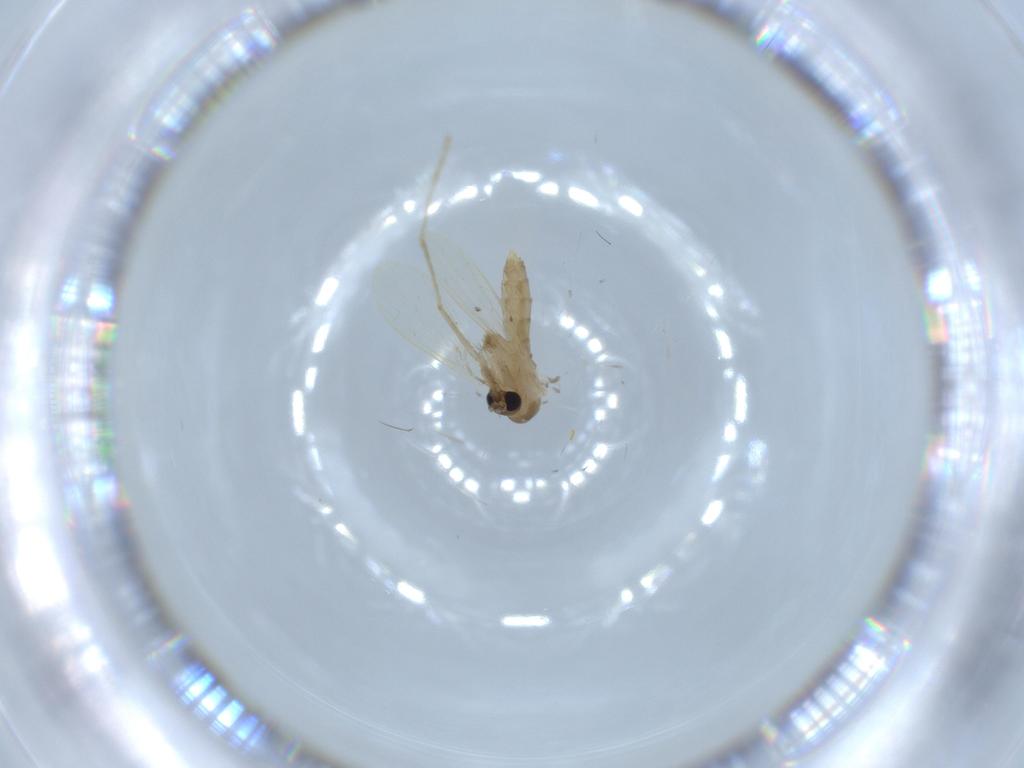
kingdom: Animalia
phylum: Arthropoda
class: Insecta
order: Diptera
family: Psychodidae
